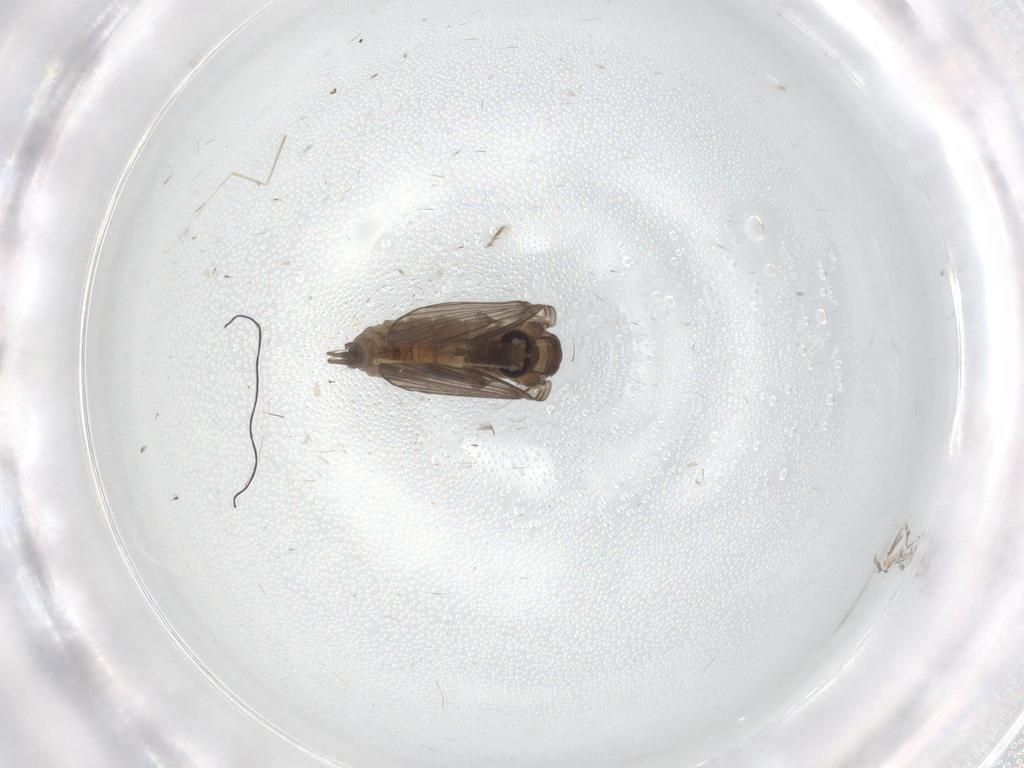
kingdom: Animalia
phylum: Arthropoda
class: Insecta
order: Diptera
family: Psychodidae
